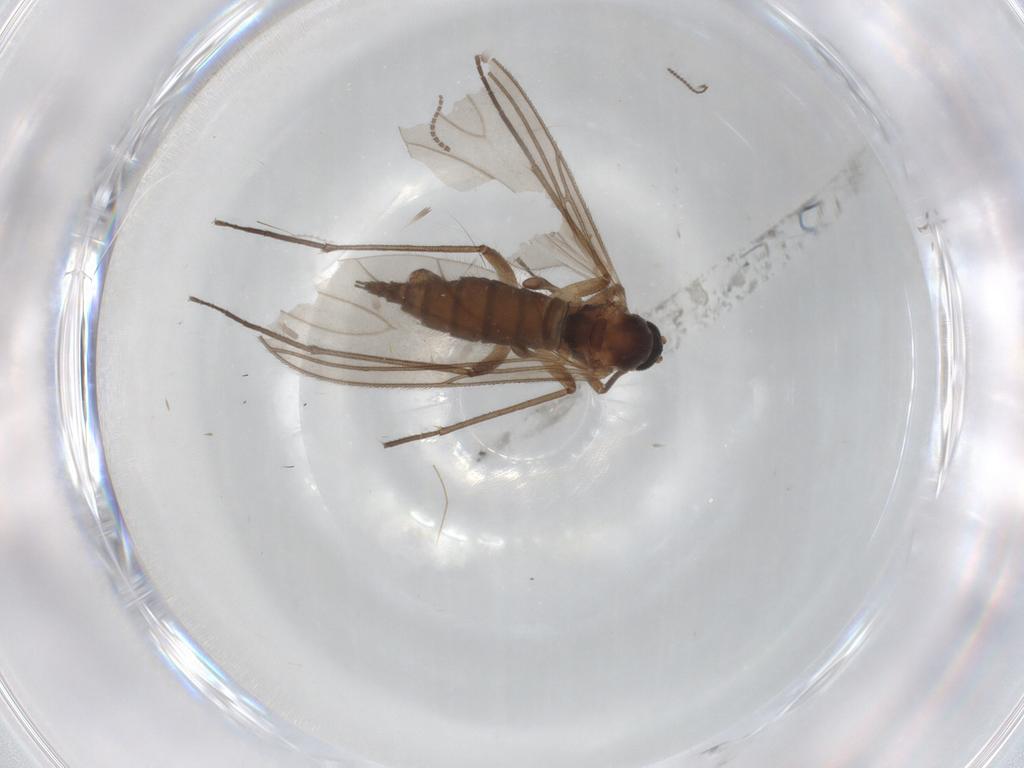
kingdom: Animalia
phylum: Arthropoda
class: Insecta
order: Diptera
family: Sciaridae
